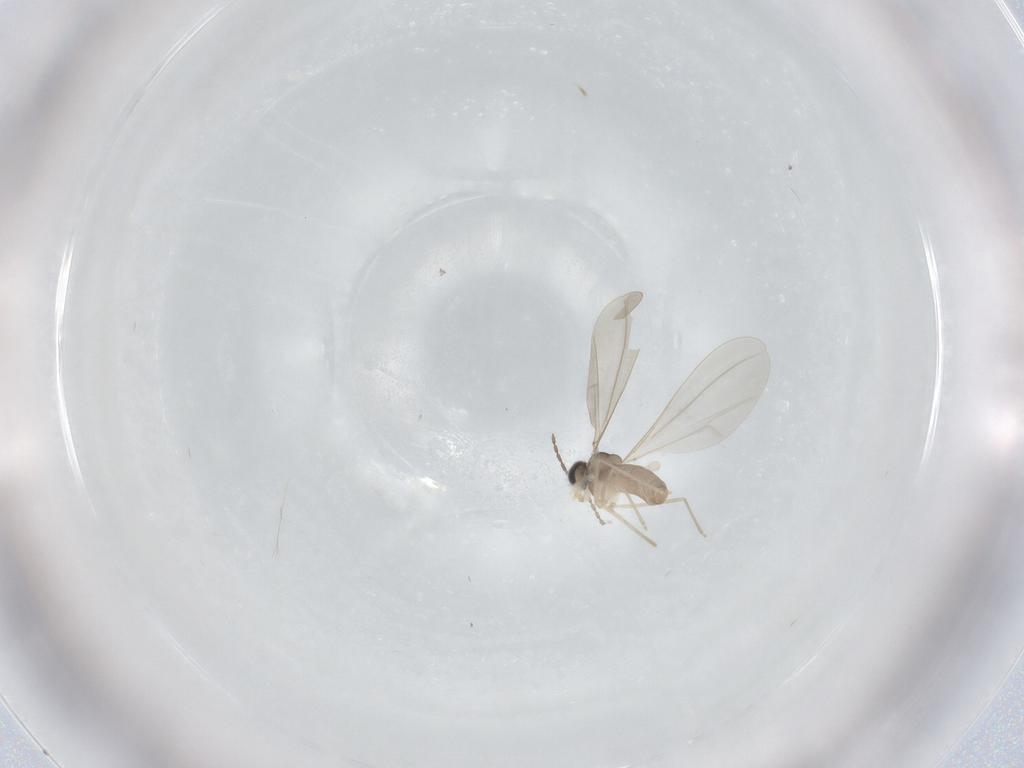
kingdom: Animalia
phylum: Arthropoda
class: Insecta
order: Diptera
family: Cecidomyiidae
